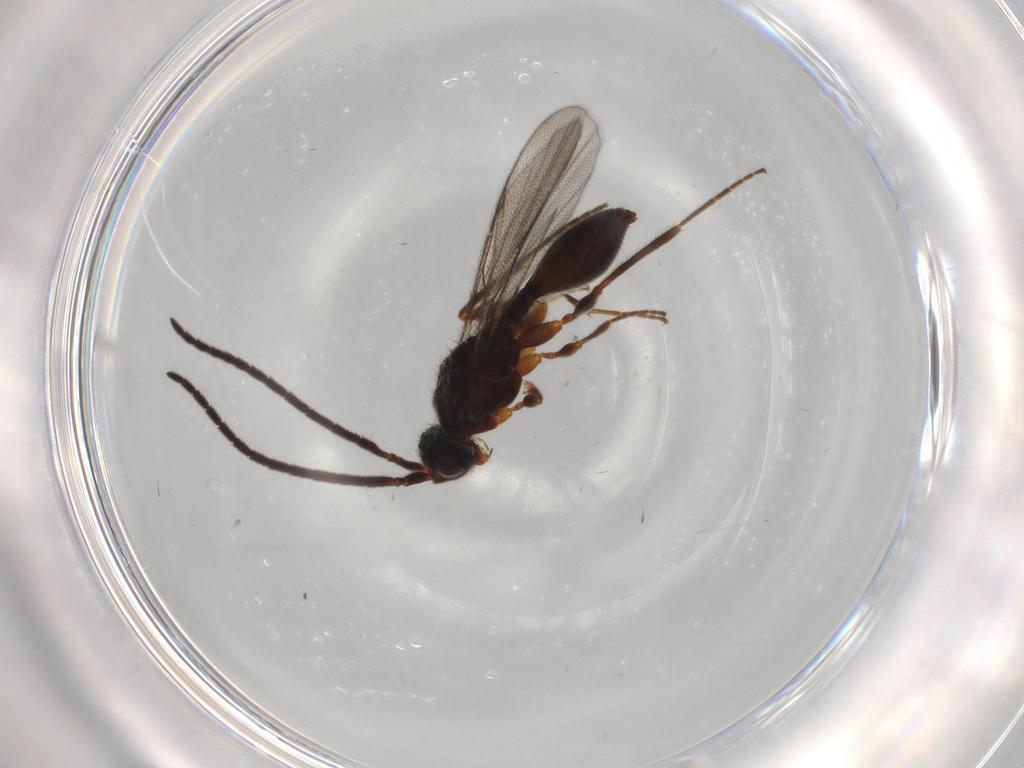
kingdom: Animalia
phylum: Arthropoda
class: Insecta
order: Hymenoptera
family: Diapriidae
